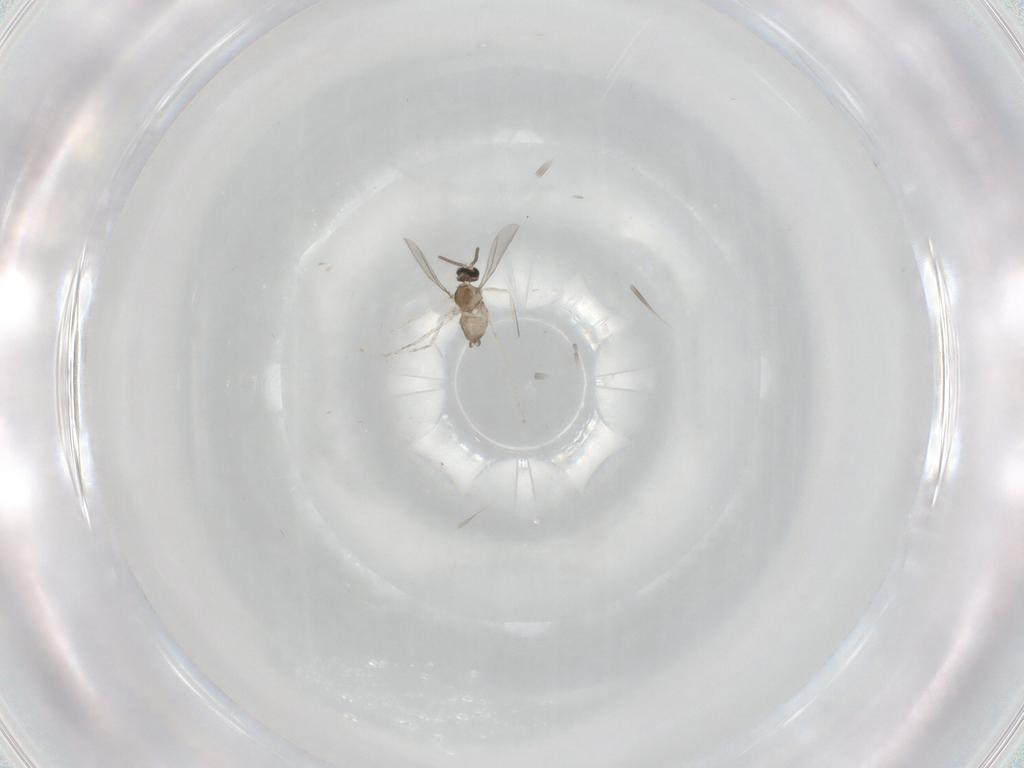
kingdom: Animalia
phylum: Arthropoda
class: Insecta
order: Diptera
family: Cecidomyiidae
